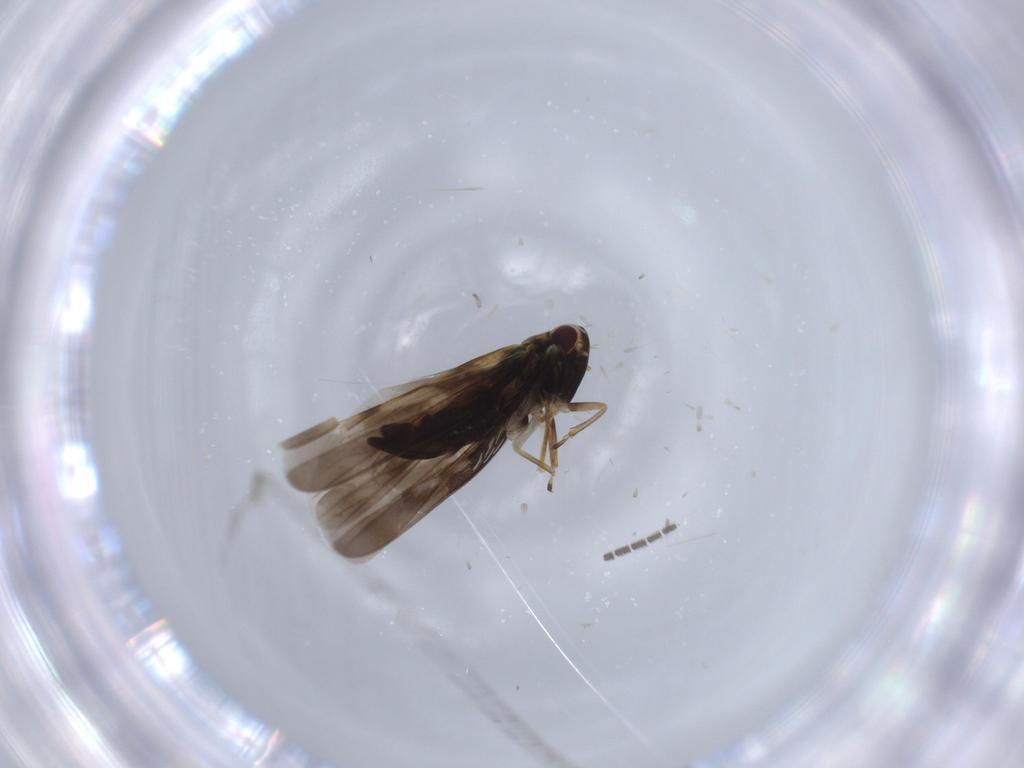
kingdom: Animalia
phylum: Arthropoda
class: Insecta
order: Hemiptera
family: Cicadellidae
